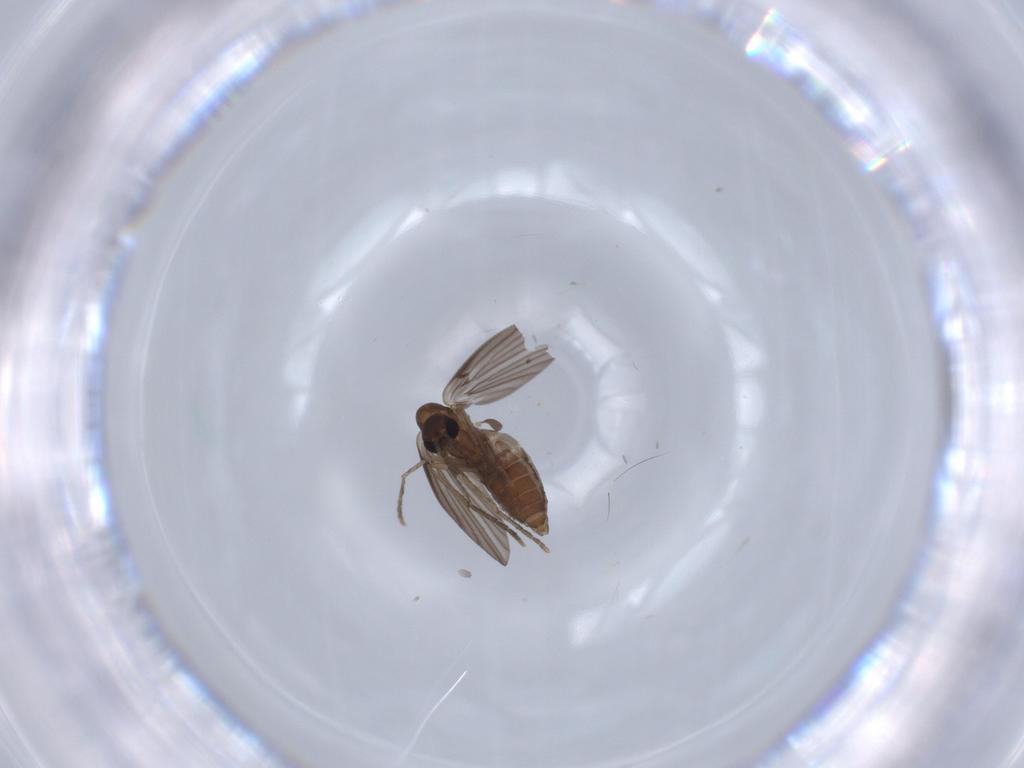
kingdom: Animalia
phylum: Arthropoda
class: Insecta
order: Diptera
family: Psychodidae
